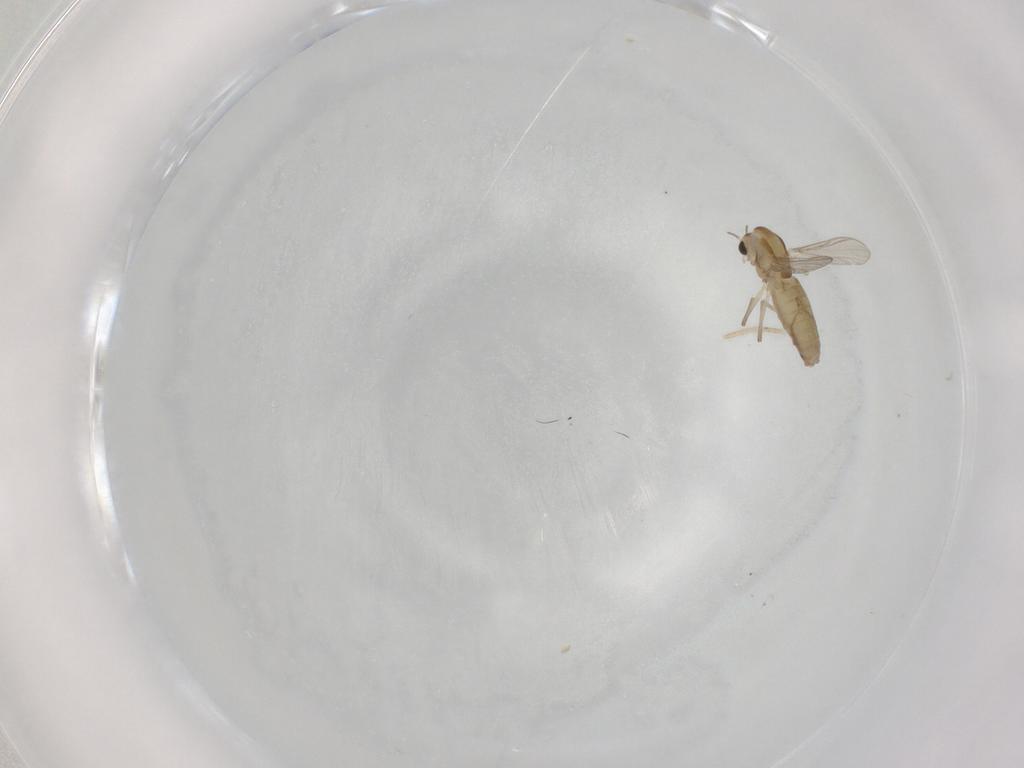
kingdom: Animalia
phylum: Arthropoda
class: Insecta
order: Diptera
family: Chironomidae
